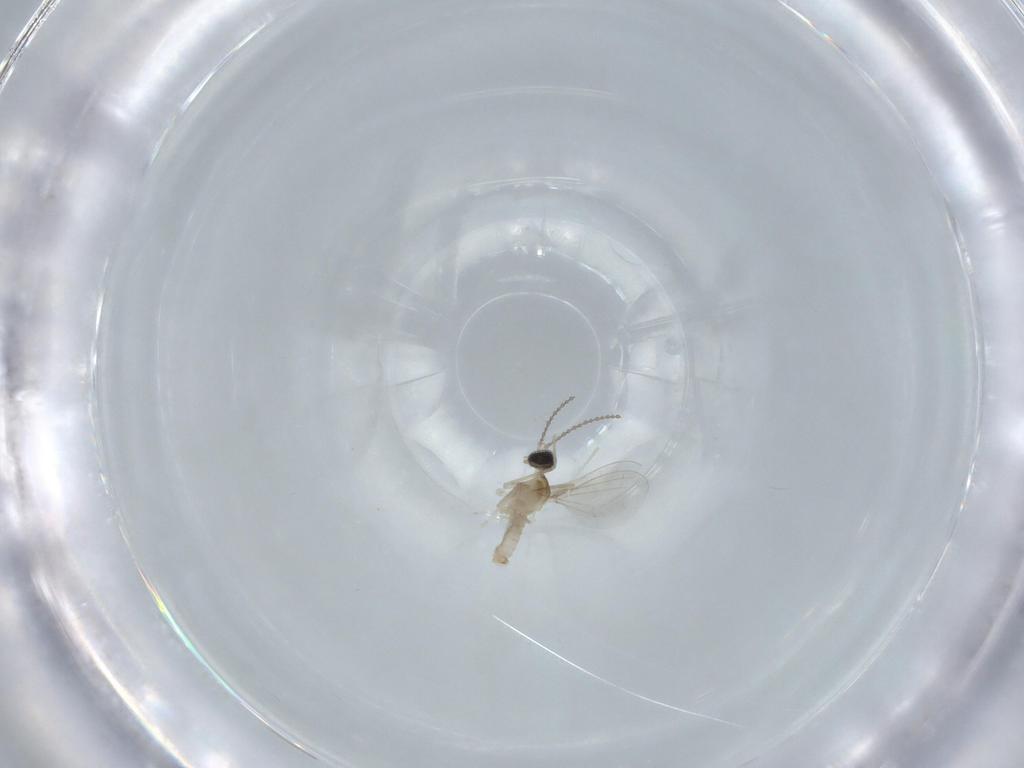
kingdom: Animalia
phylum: Arthropoda
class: Insecta
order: Diptera
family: Cecidomyiidae
